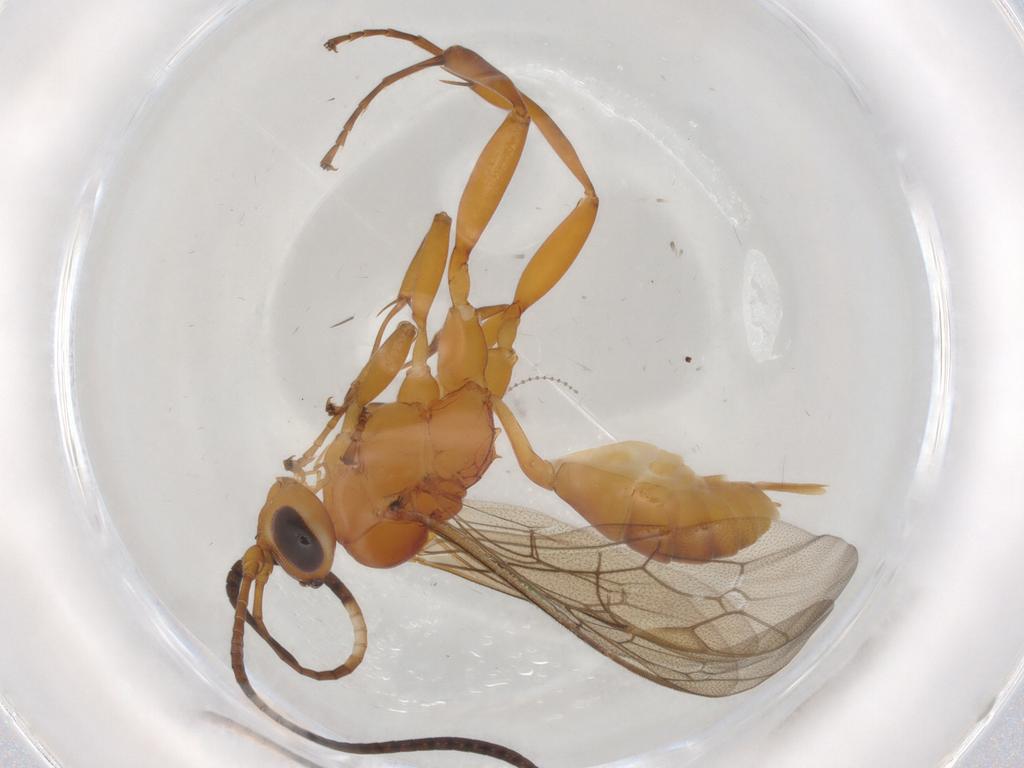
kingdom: Animalia
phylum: Arthropoda
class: Insecta
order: Hymenoptera
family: Ichneumonidae
